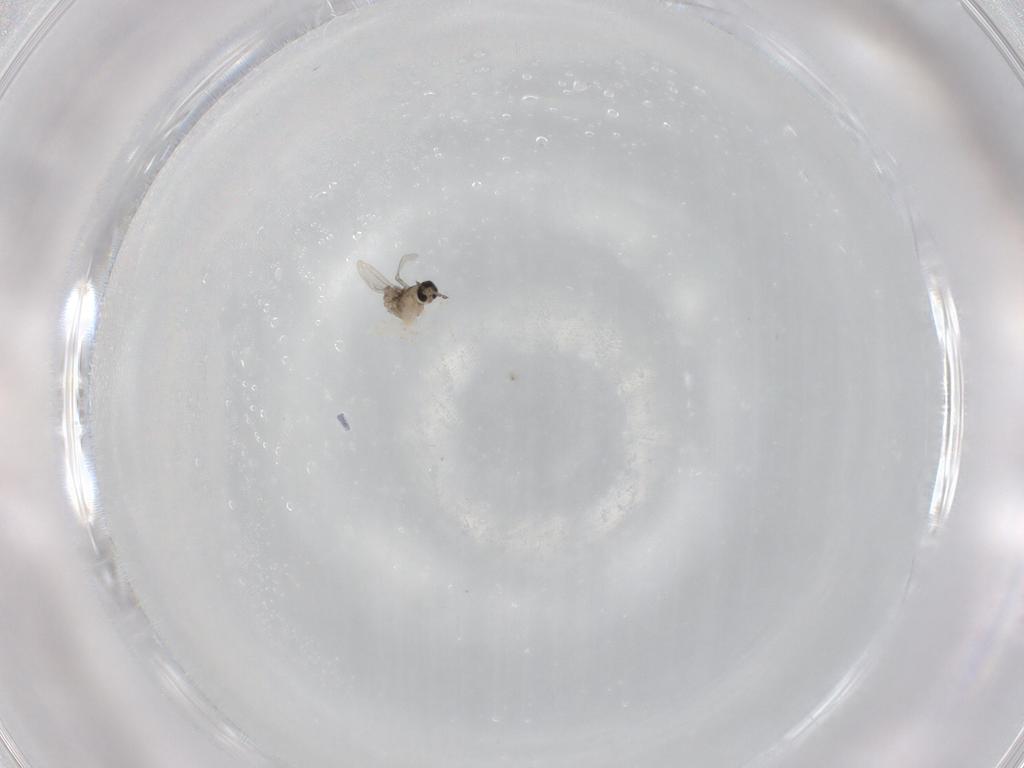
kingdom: Animalia
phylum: Arthropoda
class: Insecta
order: Diptera
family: Cecidomyiidae
